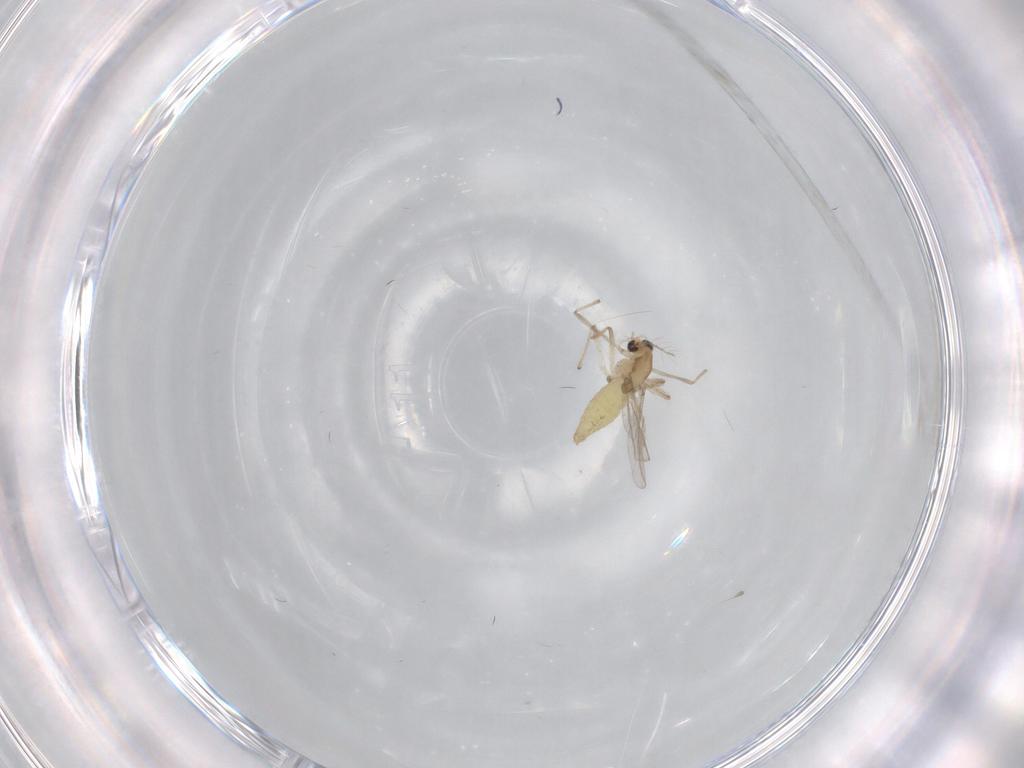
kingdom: Animalia
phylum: Arthropoda
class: Insecta
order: Diptera
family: Chironomidae
